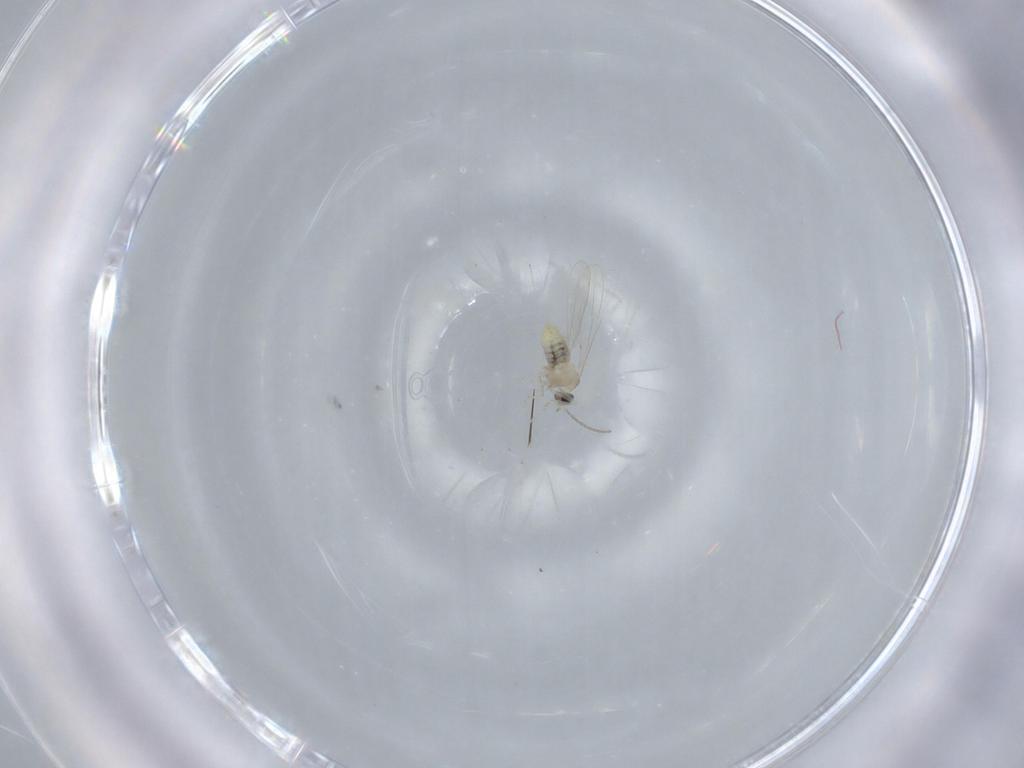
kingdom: Animalia
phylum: Arthropoda
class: Insecta
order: Diptera
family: Cecidomyiidae
